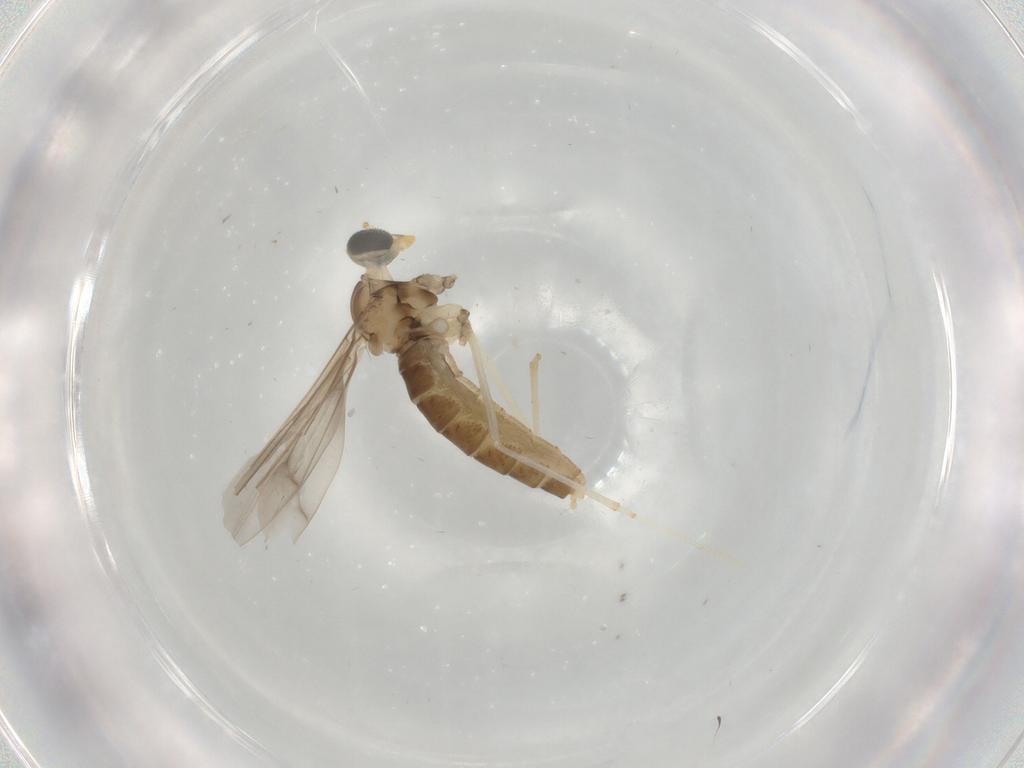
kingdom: Animalia
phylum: Arthropoda
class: Insecta
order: Diptera
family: Cecidomyiidae
